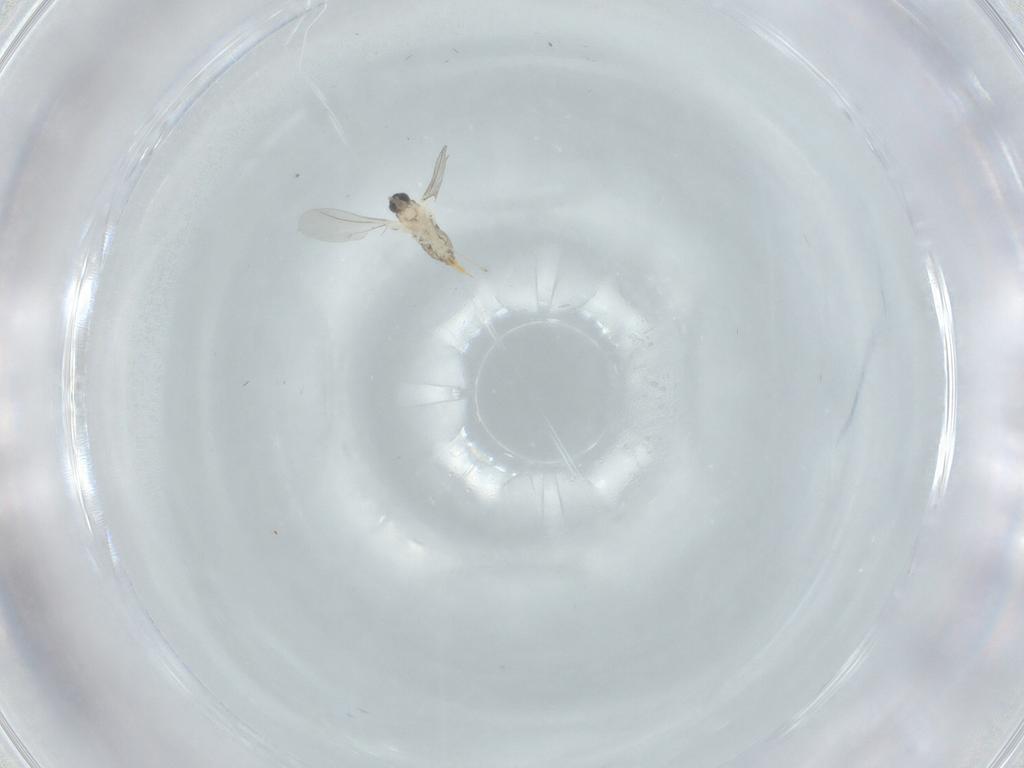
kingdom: Animalia
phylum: Arthropoda
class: Insecta
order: Diptera
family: Cecidomyiidae
